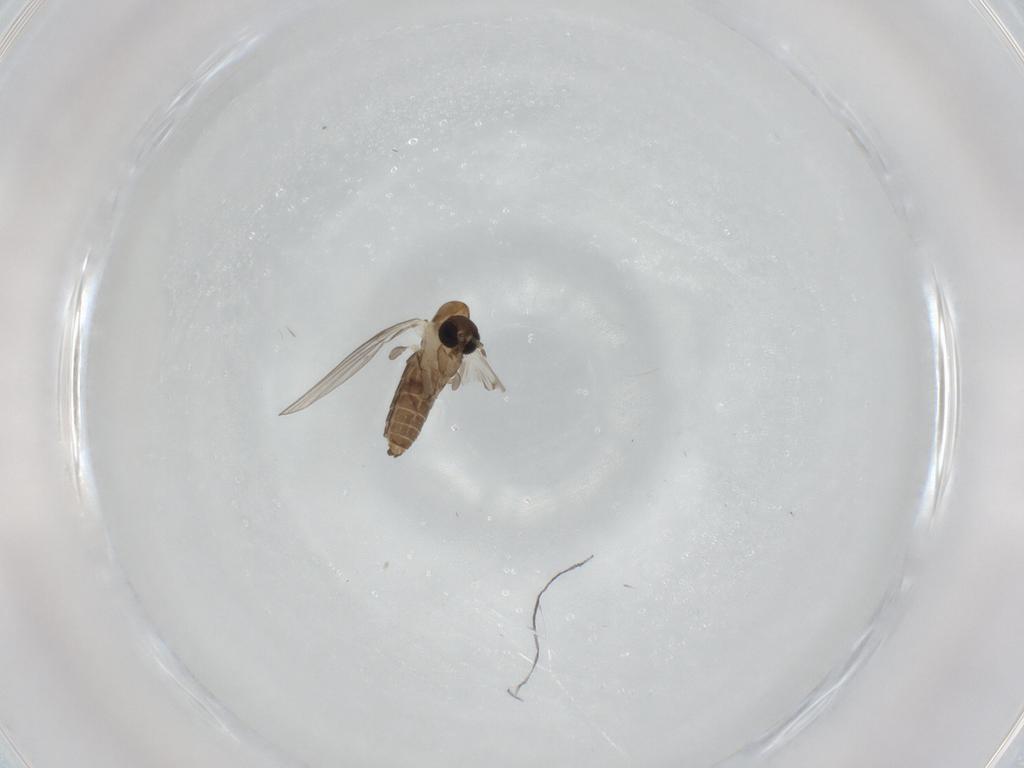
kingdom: Animalia
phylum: Arthropoda
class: Insecta
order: Diptera
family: Psychodidae
